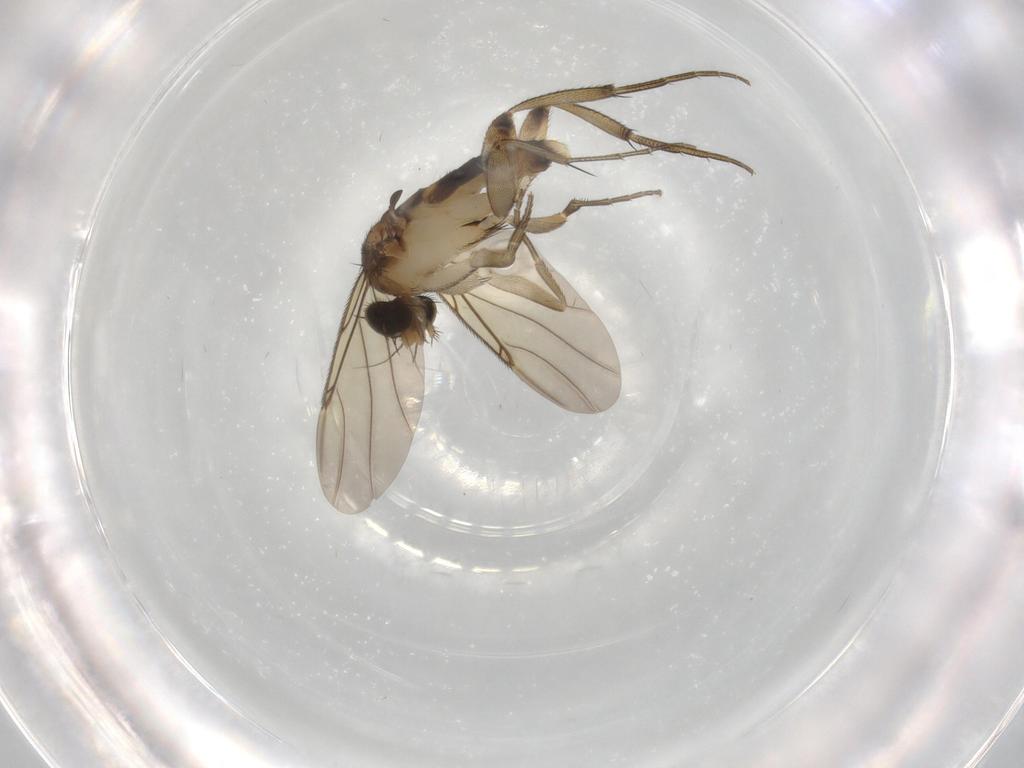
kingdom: Animalia
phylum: Arthropoda
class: Insecta
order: Diptera
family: Phoridae
